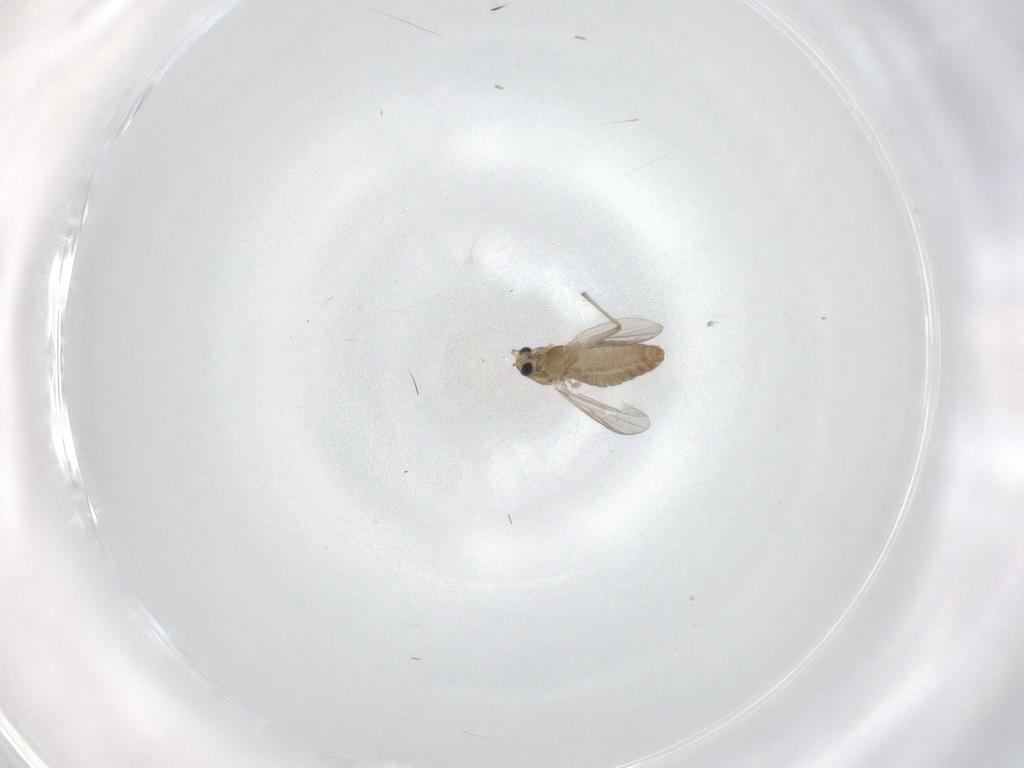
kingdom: Animalia
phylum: Arthropoda
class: Insecta
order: Diptera
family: Chironomidae
